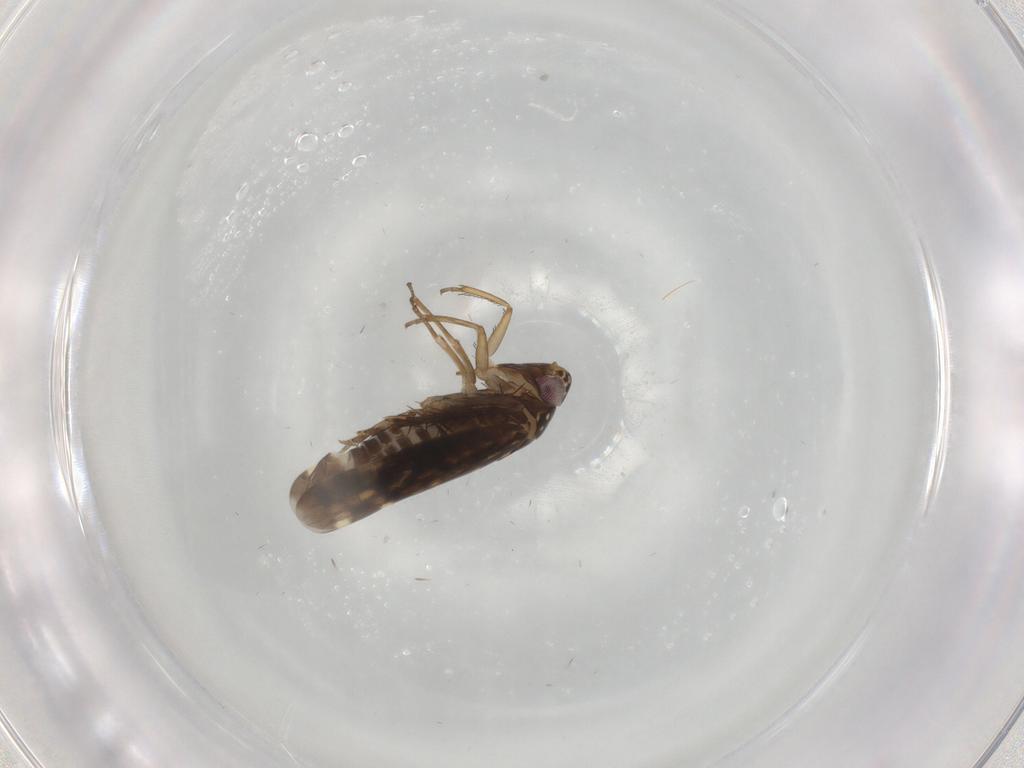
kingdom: Animalia
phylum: Arthropoda
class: Insecta
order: Hemiptera
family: Cicadellidae
